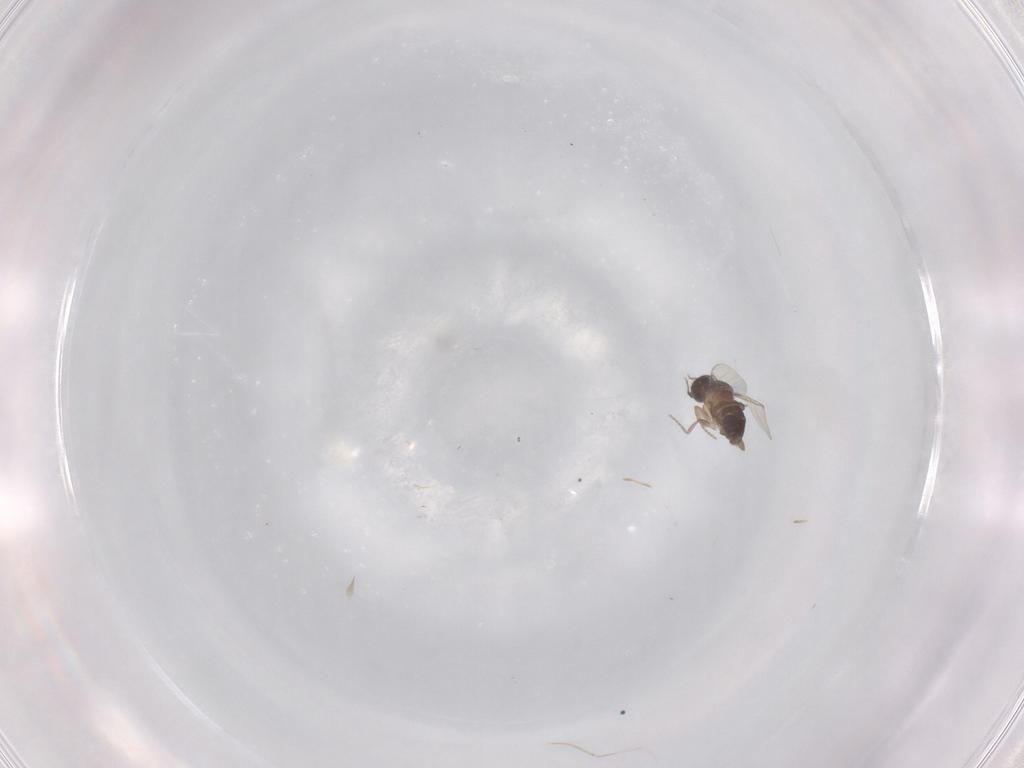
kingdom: Animalia
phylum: Arthropoda
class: Insecta
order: Diptera
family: Phoridae
